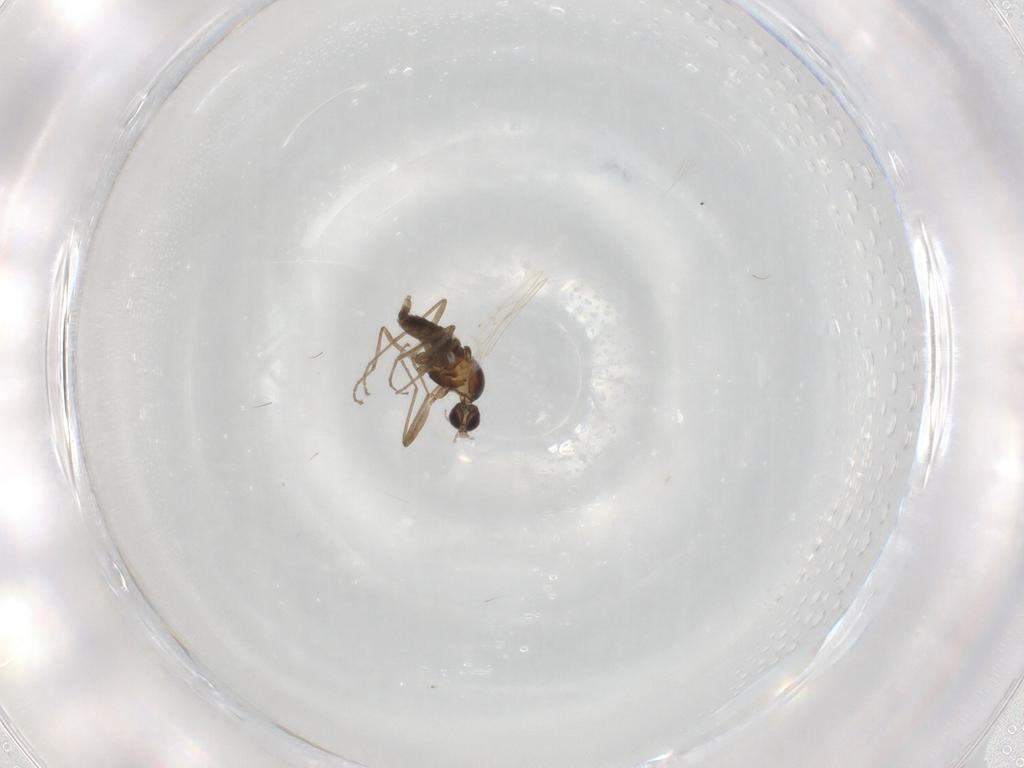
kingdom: Animalia
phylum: Arthropoda
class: Insecta
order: Diptera
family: Cecidomyiidae
